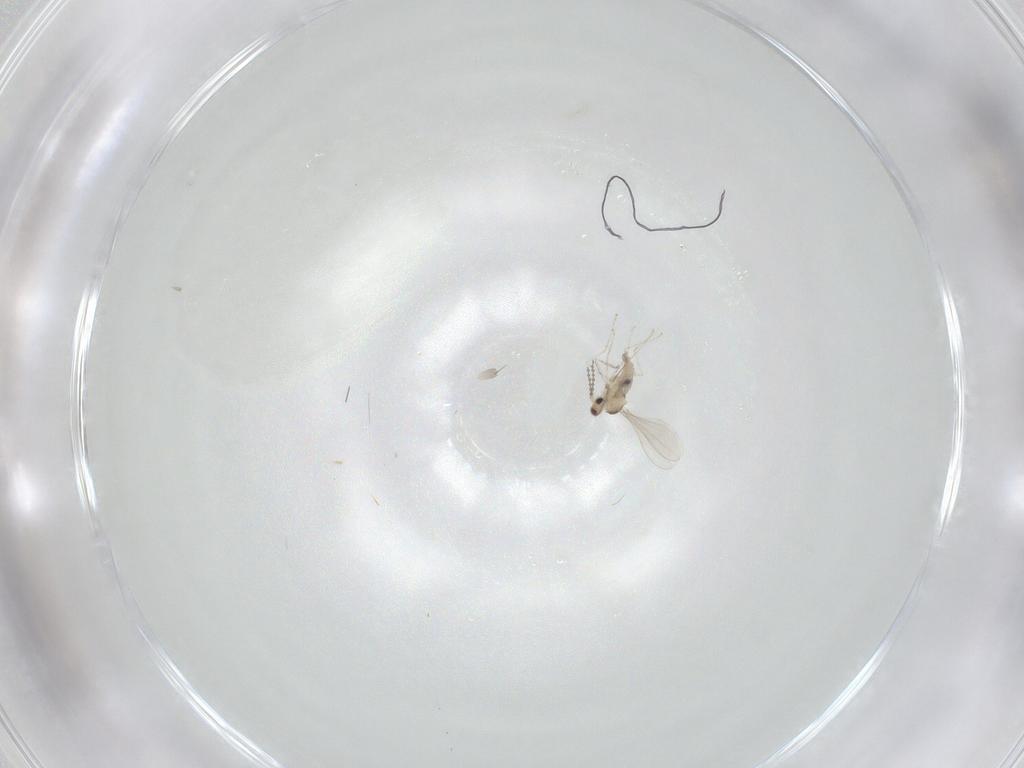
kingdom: Animalia
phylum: Arthropoda
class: Insecta
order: Diptera
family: Cecidomyiidae
